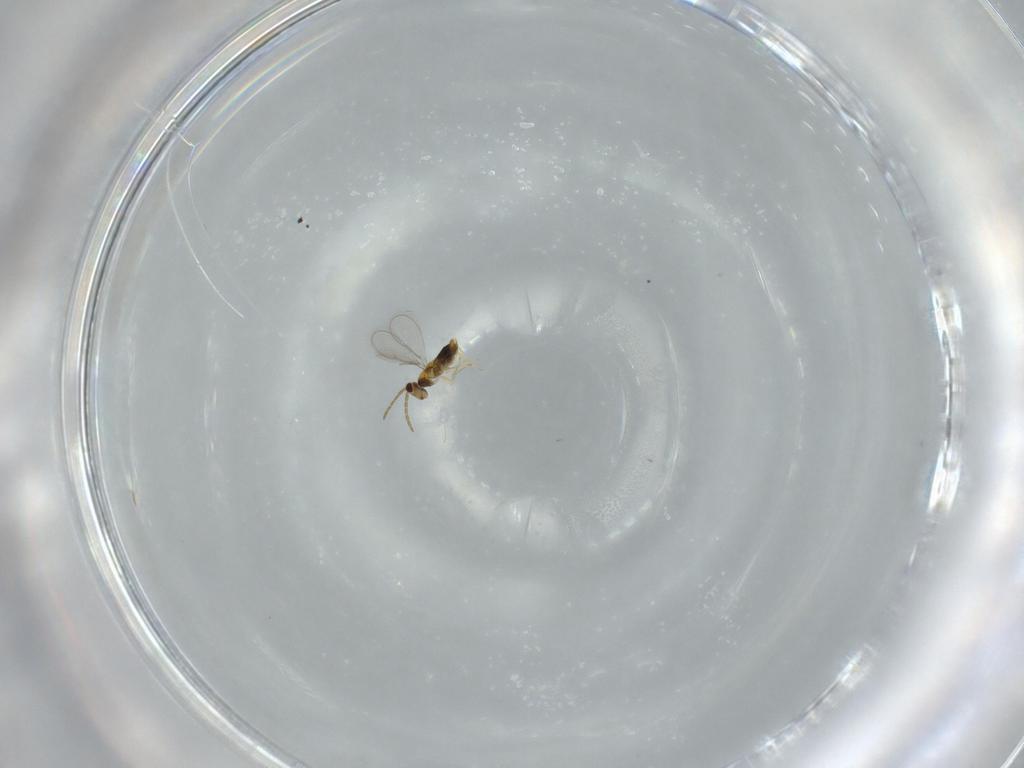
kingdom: Animalia
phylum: Arthropoda
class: Insecta
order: Hymenoptera
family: Aphelinidae
